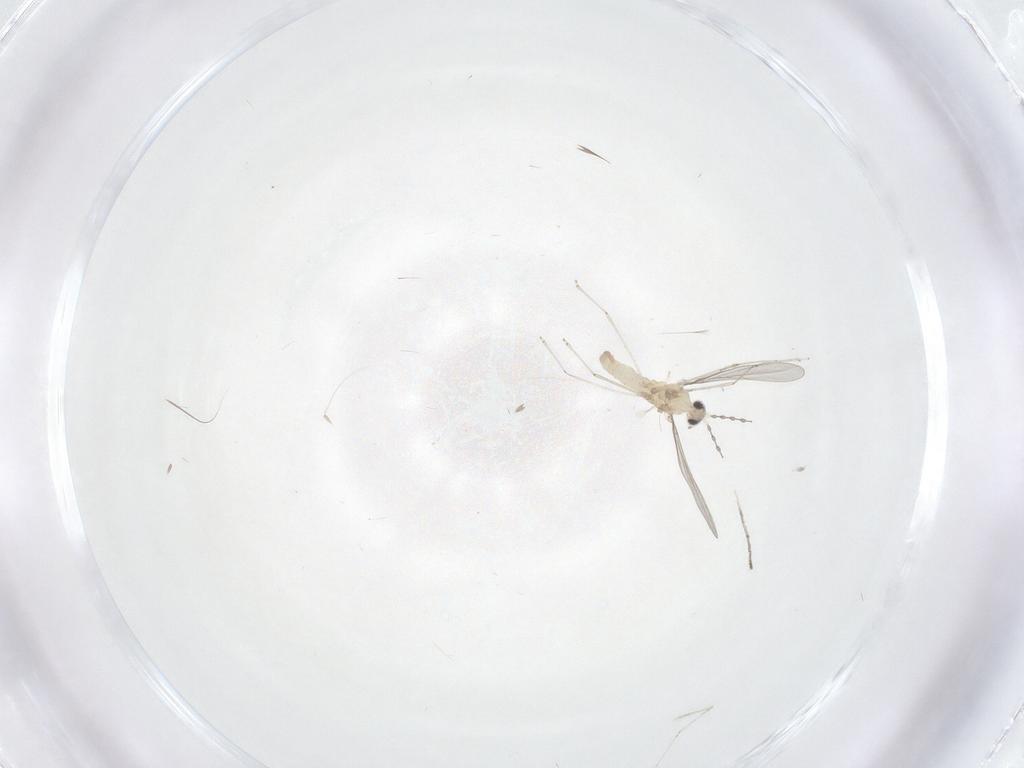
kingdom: Animalia
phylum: Arthropoda
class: Insecta
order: Diptera
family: Cecidomyiidae
